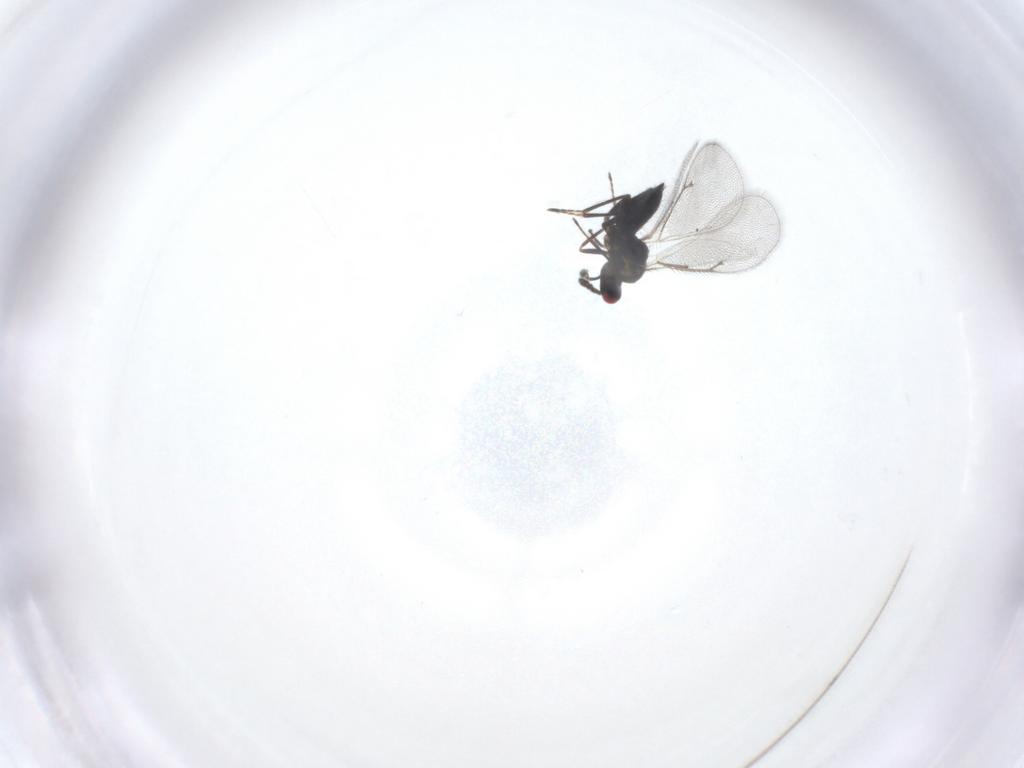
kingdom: Animalia
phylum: Arthropoda
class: Insecta
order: Hymenoptera
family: Eulophidae
